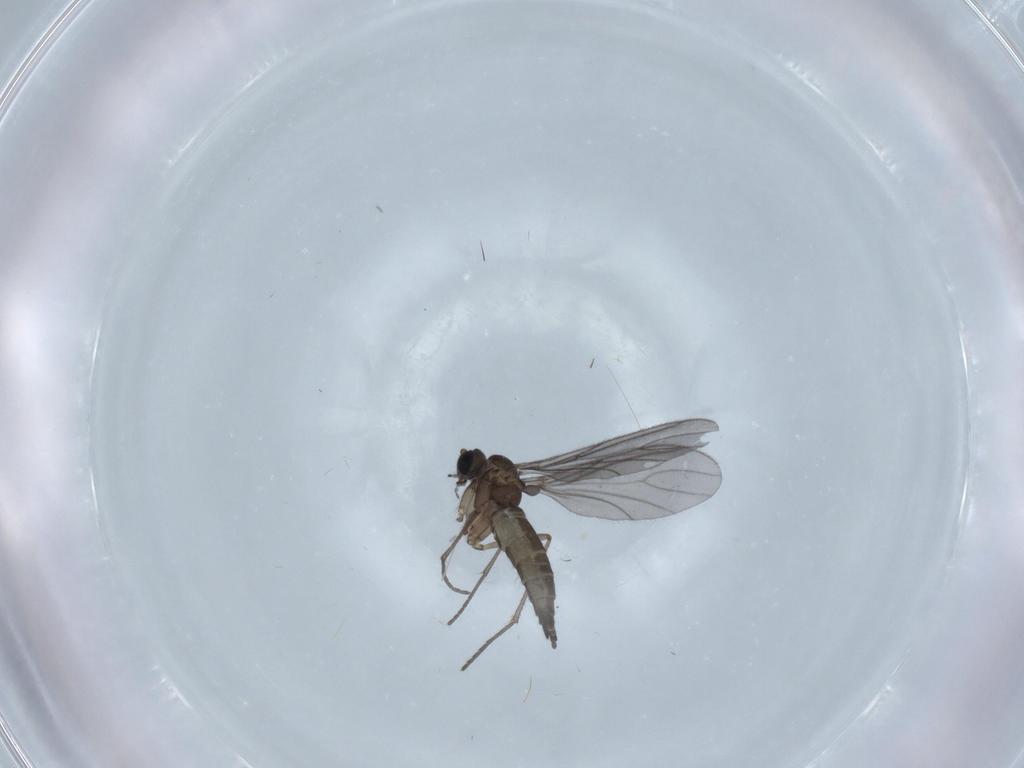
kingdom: Animalia
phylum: Arthropoda
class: Insecta
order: Diptera
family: Sciaridae
